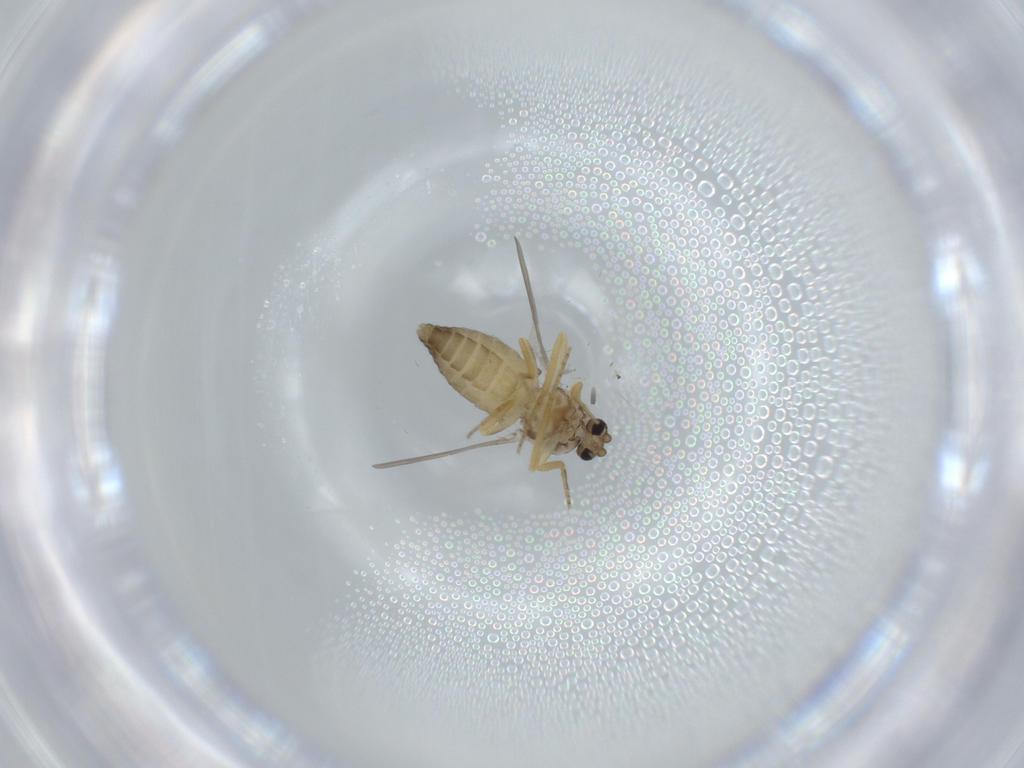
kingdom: Animalia
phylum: Arthropoda
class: Insecta
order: Diptera
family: Ceratopogonidae
